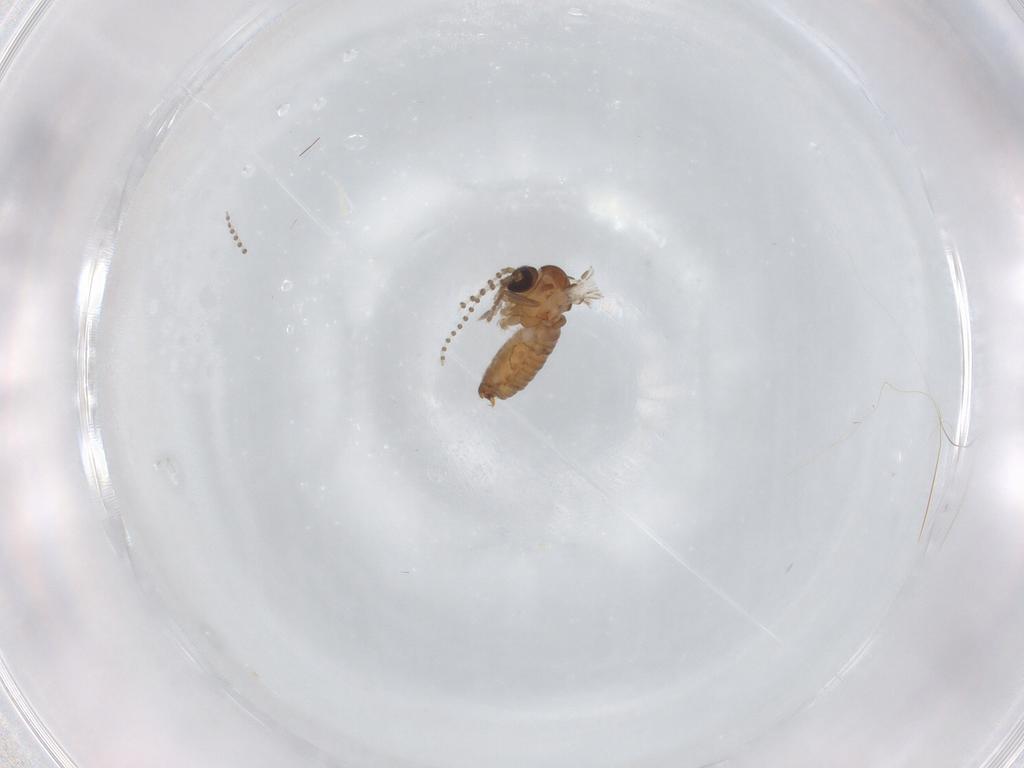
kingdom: Animalia
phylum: Arthropoda
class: Insecta
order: Diptera
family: Psychodidae
